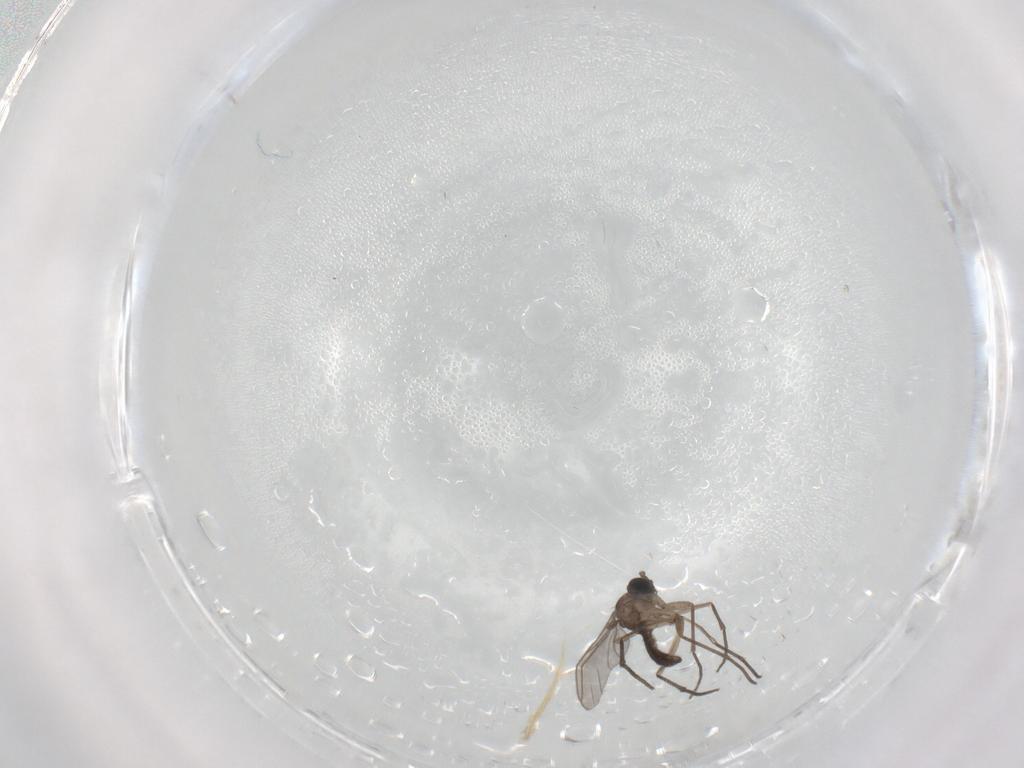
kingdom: Animalia
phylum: Arthropoda
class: Insecta
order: Diptera
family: Sciaridae
